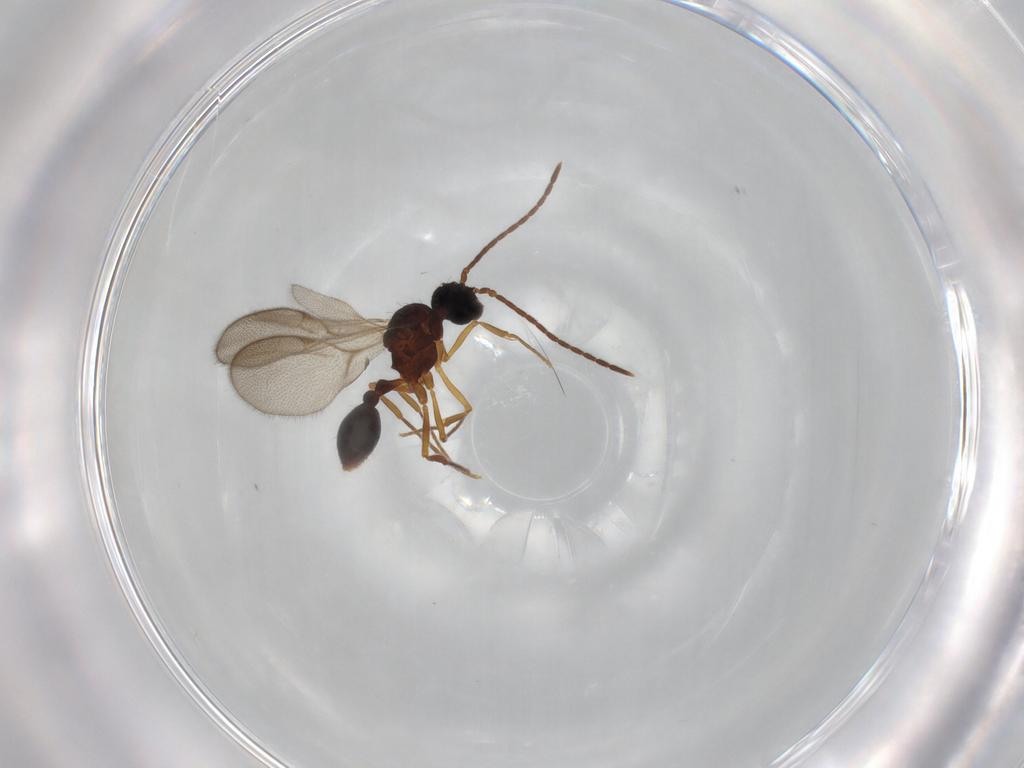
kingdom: Animalia
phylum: Arthropoda
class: Insecta
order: Hymenoptera
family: Formicidae
